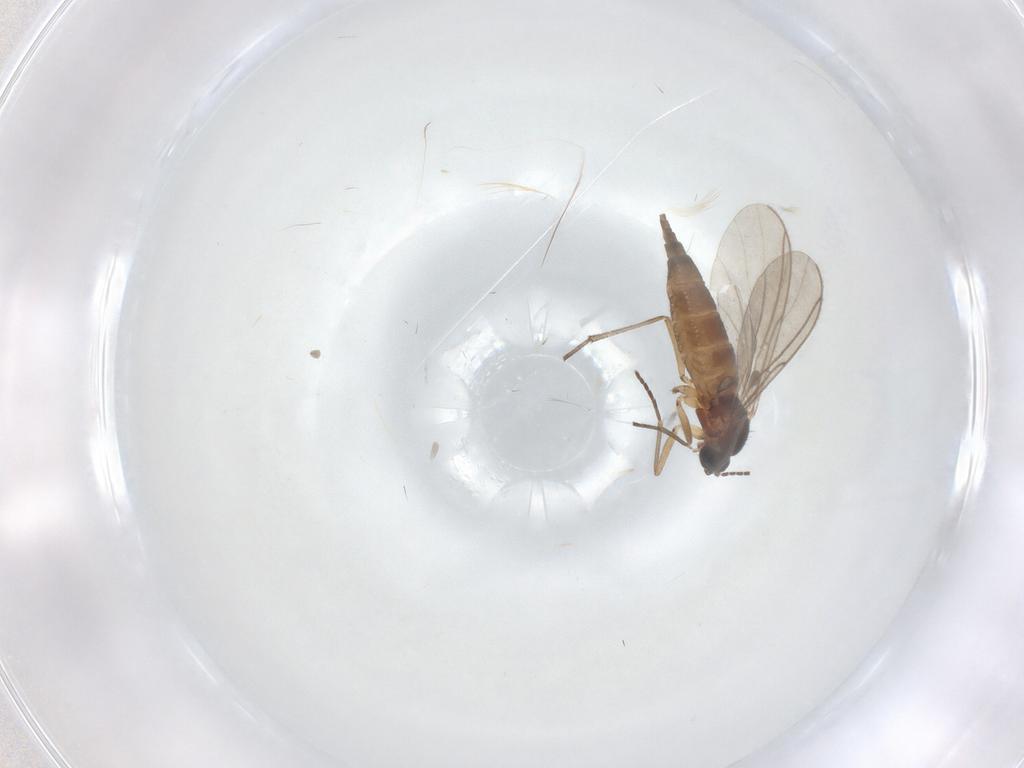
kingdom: Animalia
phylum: Arthropoda
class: Insecta
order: Diptera
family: Sciaridae
